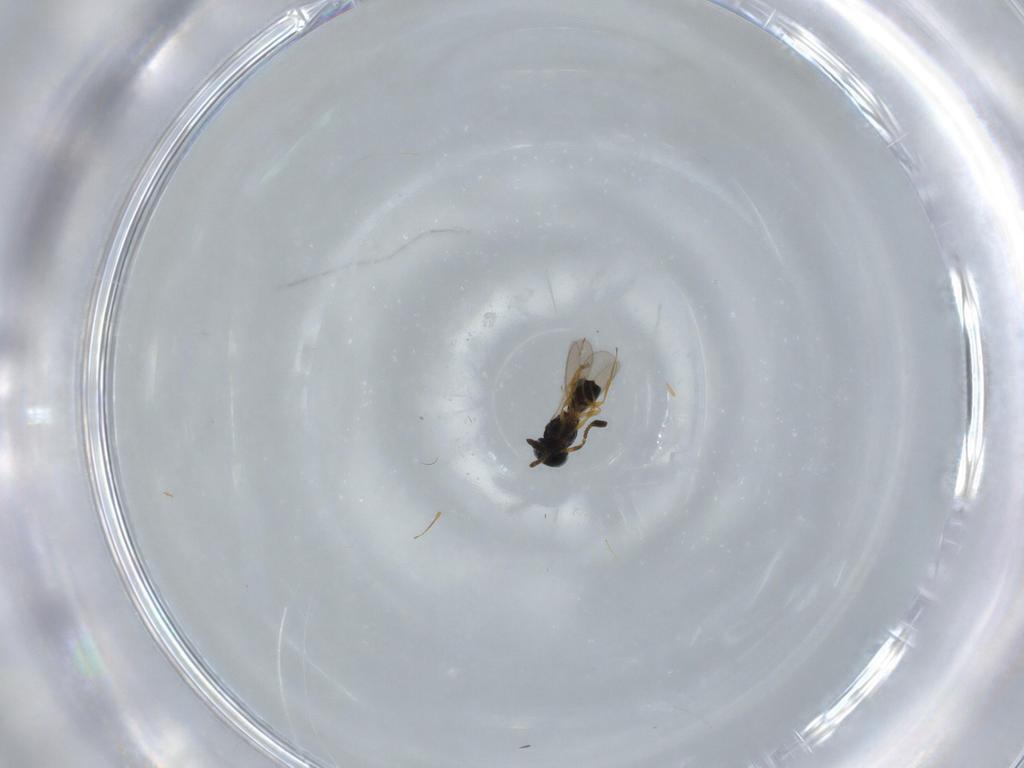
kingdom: Animalia
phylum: Arthropoda
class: Insecta
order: Hymenoptera
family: Scelionidae
